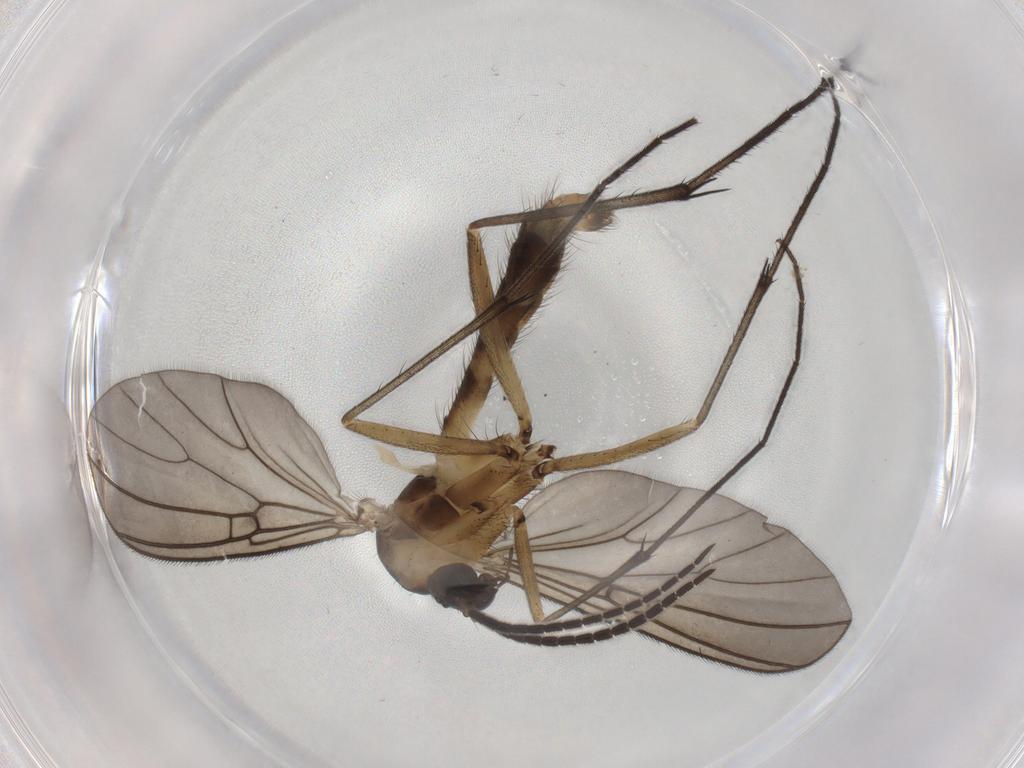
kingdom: Animalia
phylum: Arthropoda
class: Insecta
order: Diptera
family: Mycetophilidae
